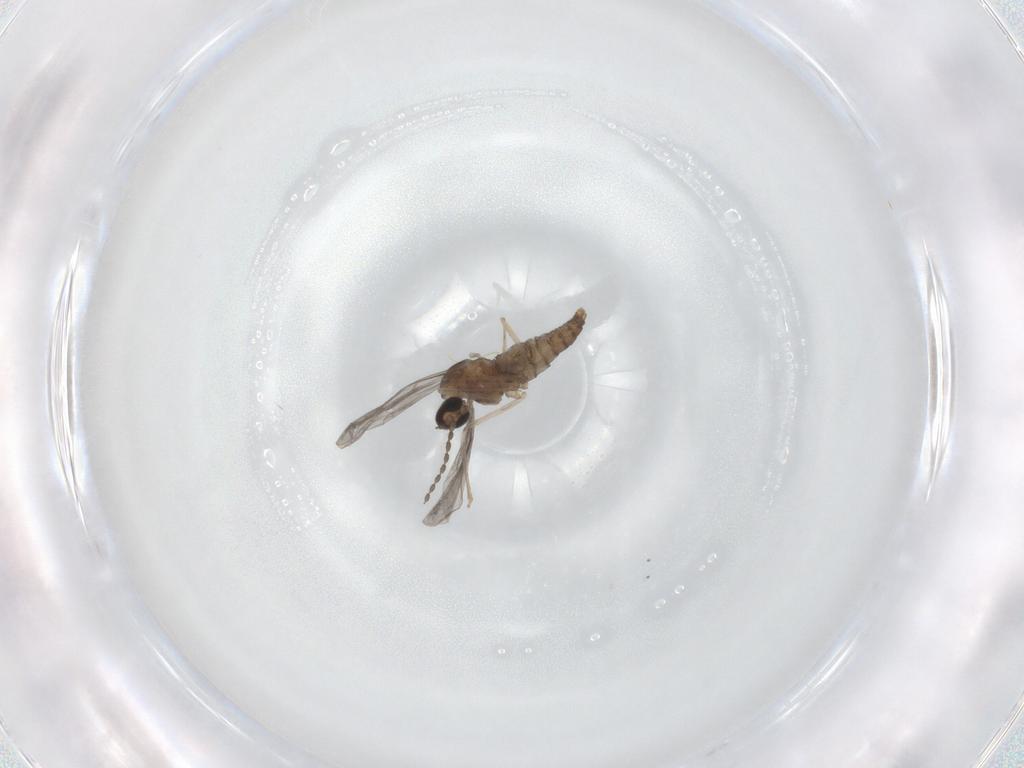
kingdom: Animalia
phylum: Arthropoda
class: Insecta
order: Diptera
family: Cecidomyiidae
